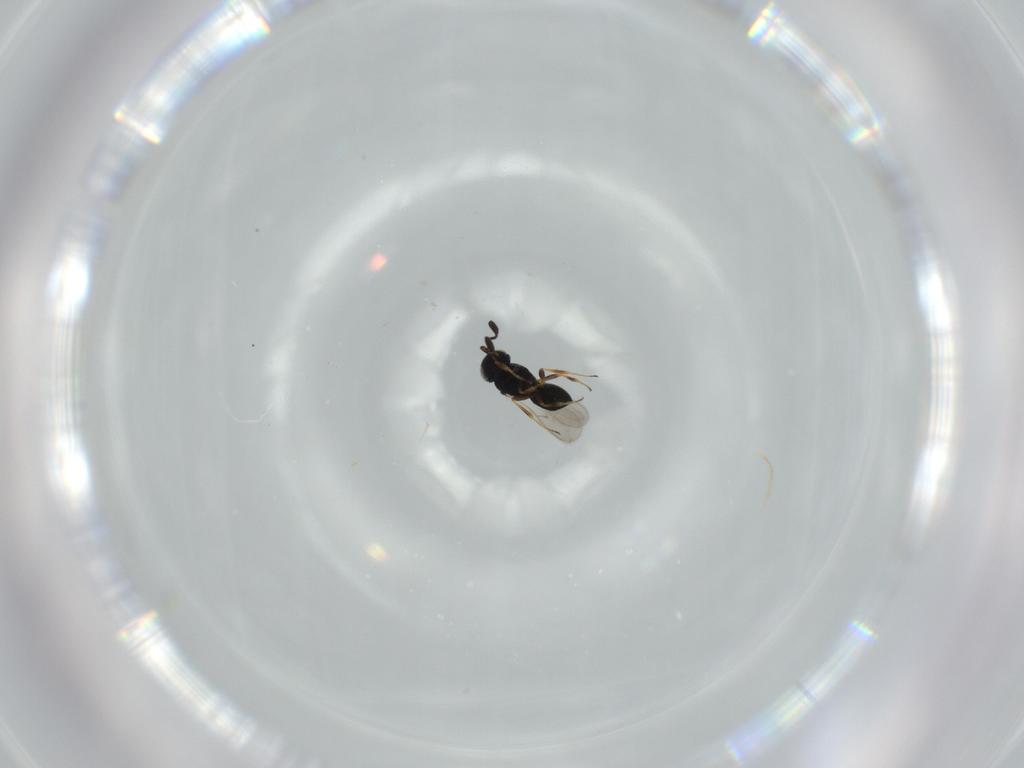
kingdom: Animalia
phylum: Arthropoda
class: Insecta
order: Hymenoptera
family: Scelionidae
